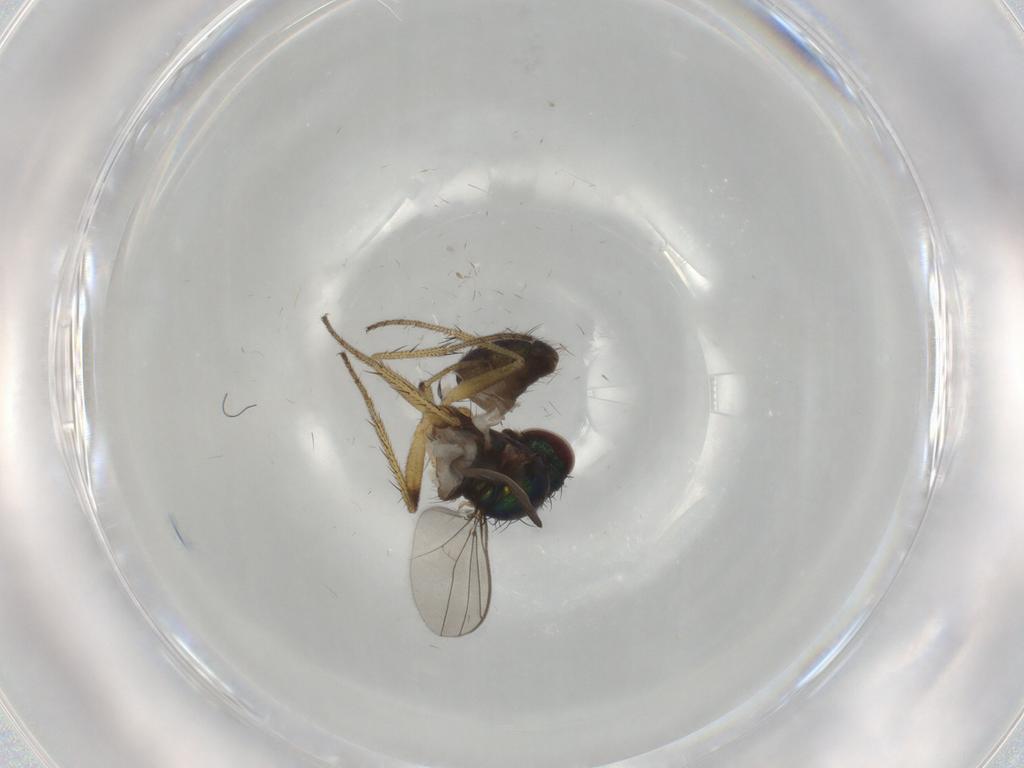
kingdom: Animalia
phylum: Arthropoda
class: Insecta
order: Diptera
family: Dolichopodidae
